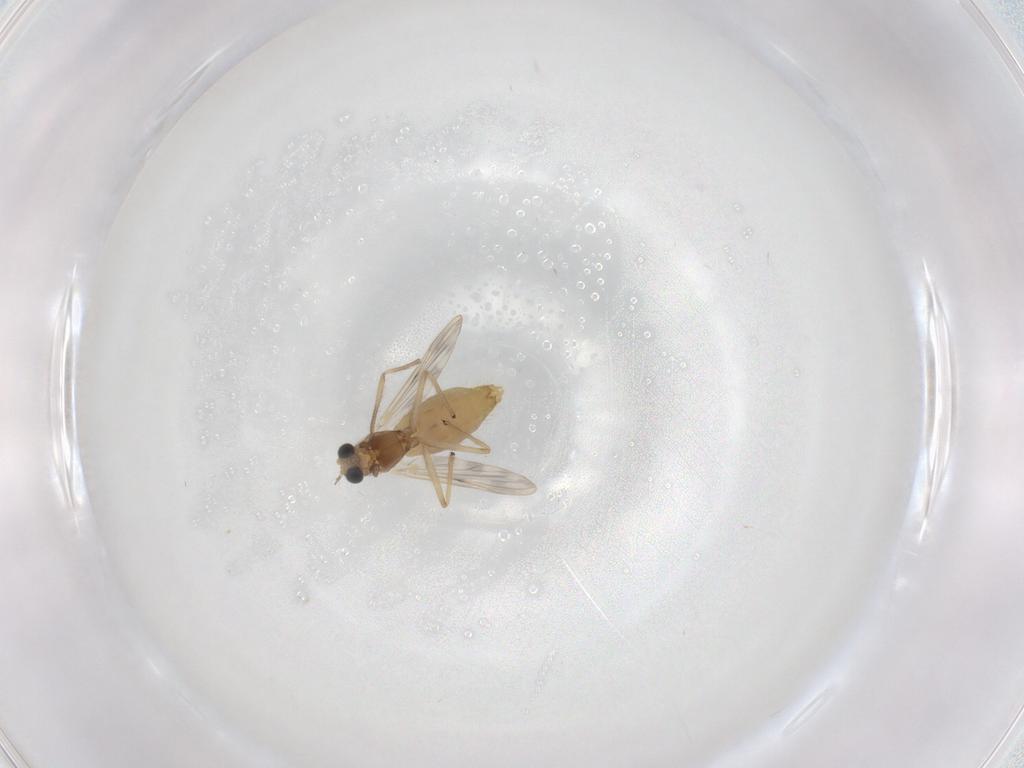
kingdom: Animalia
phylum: Arthropoda
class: Insecta
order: Diptera
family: Chironomidae
